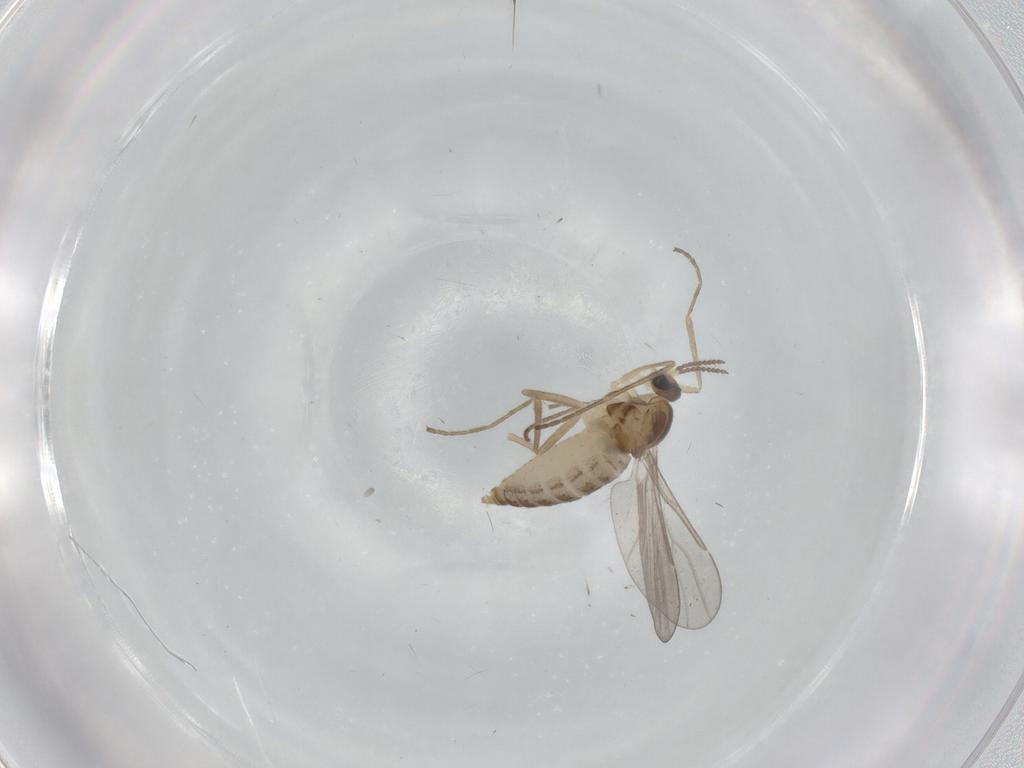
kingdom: Animalia
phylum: Arthropoda
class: Insecta
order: Diptera
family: Cecidomyiidae
